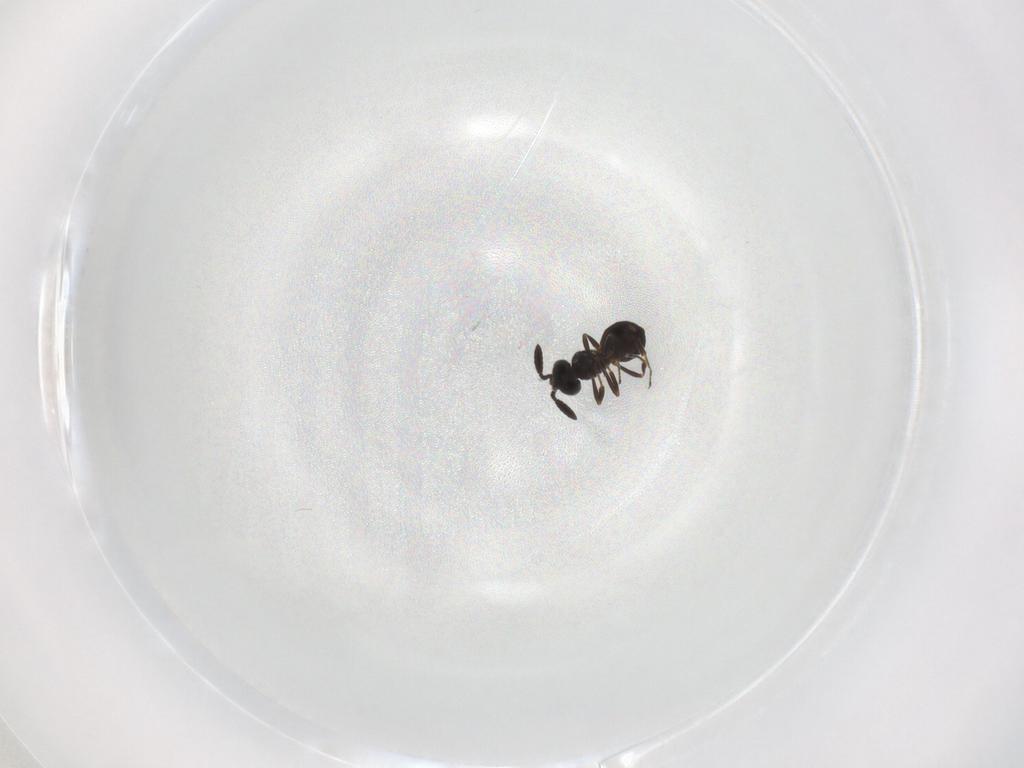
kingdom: Animalia
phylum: Arthropoda
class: Insecta
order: Hymenoptera
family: Scelionidae
